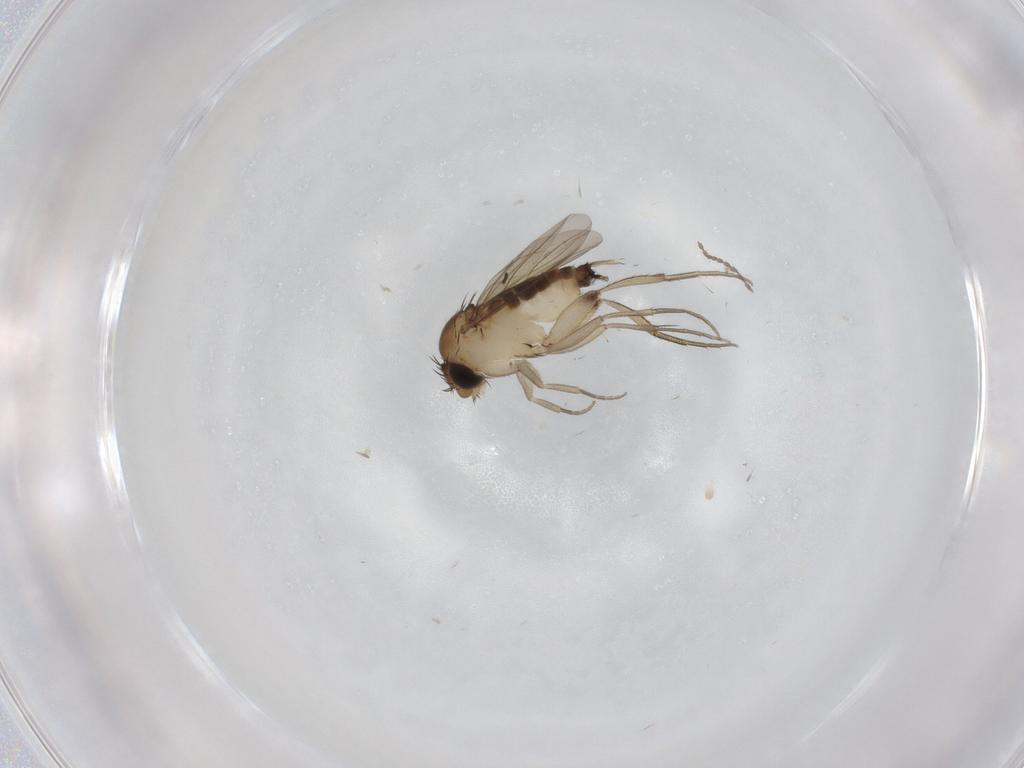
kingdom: Animalia
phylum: Arthropoda
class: Insecta
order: Diptera
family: Phoridae
